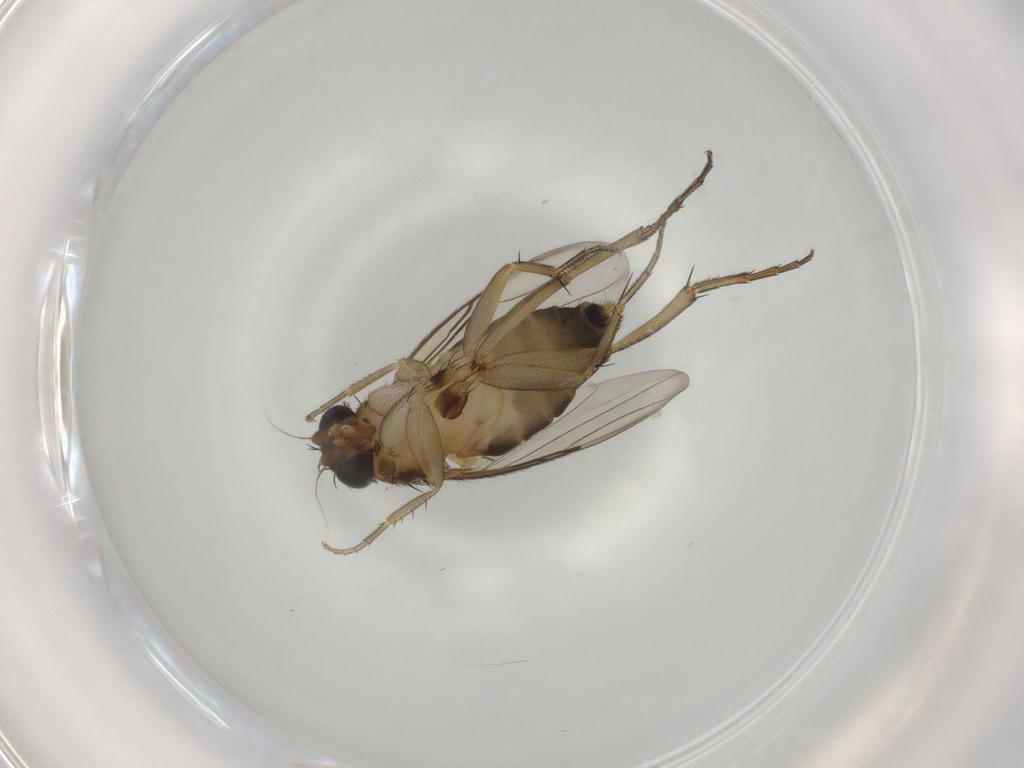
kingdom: Animalia
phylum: Arthropoda
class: Insecta
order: Diptera
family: Phoridae
